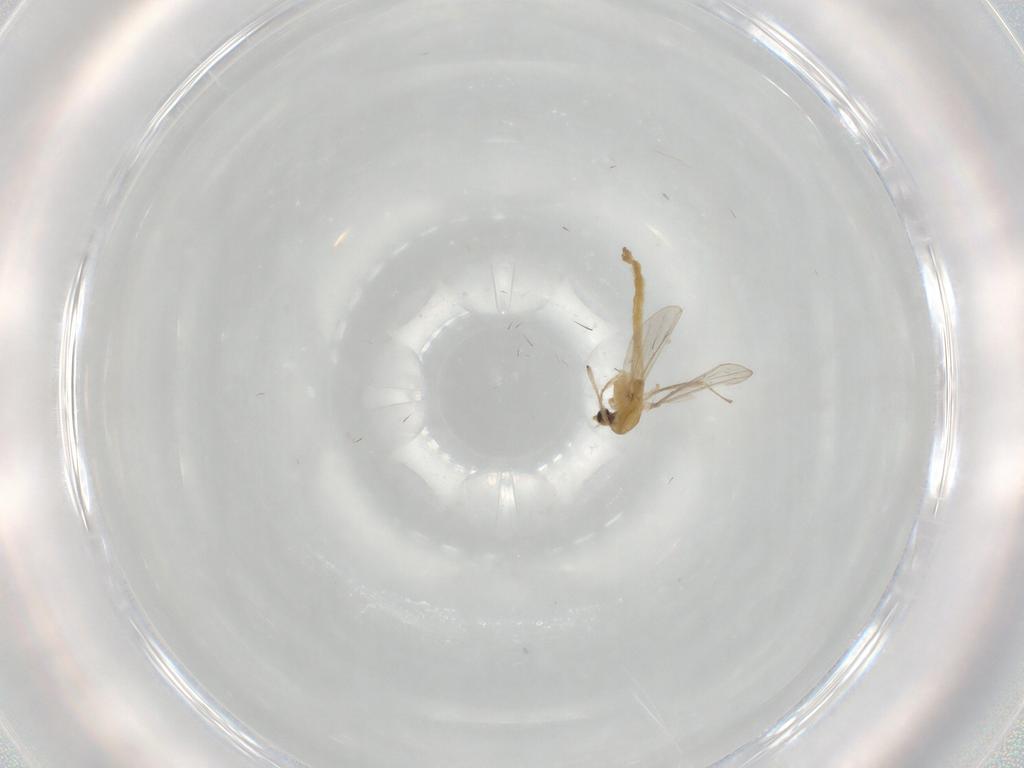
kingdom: Animalia
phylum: Arthropoda
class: Insecta
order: Diptera
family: Chironomidae
